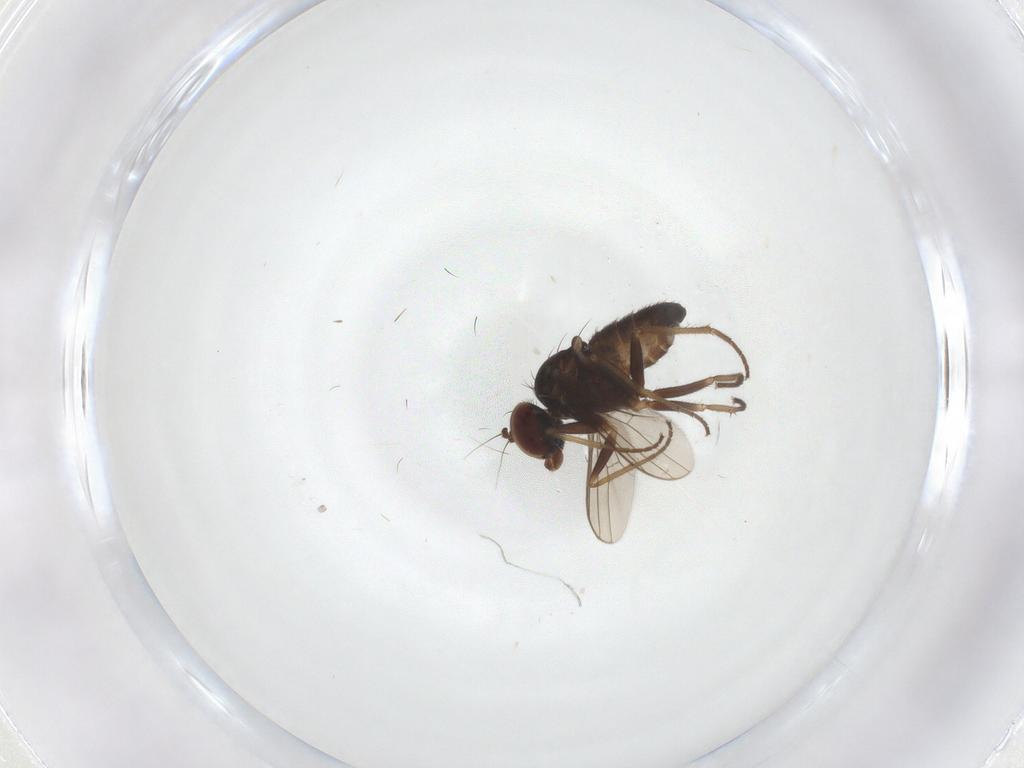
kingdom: Animalia
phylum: Arthropoda
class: Insecta
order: Diptera
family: Dolichopodidae
